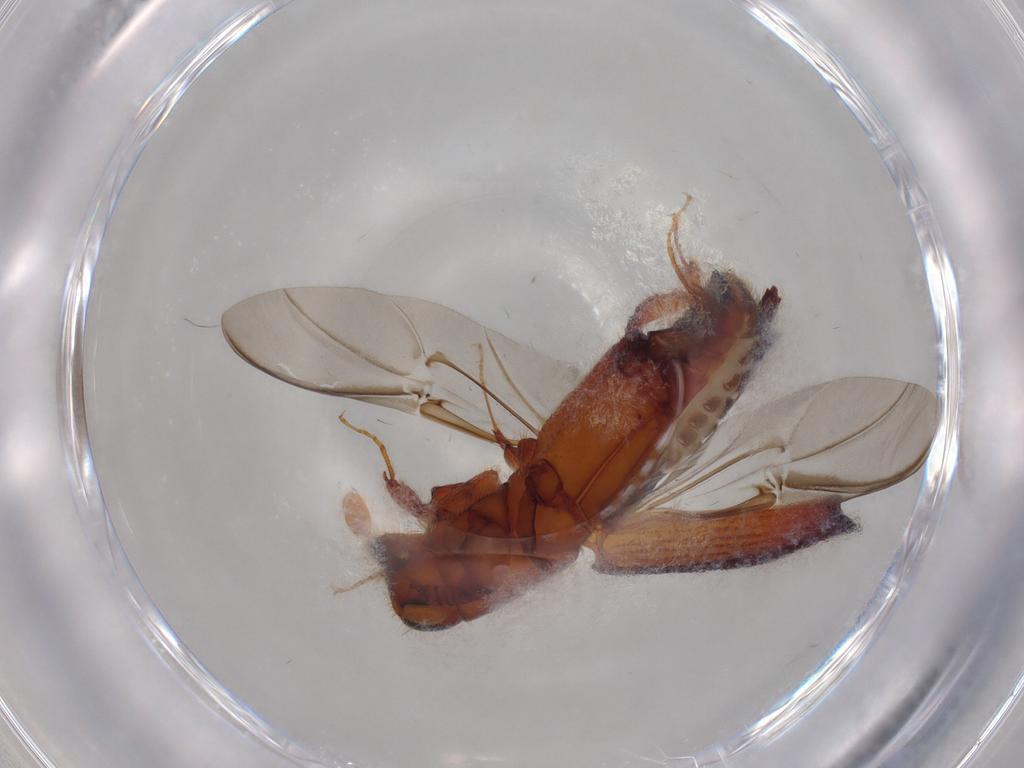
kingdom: Animalia
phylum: Arthropoda
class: Insecta
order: Coleoptera
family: Curculionidae
